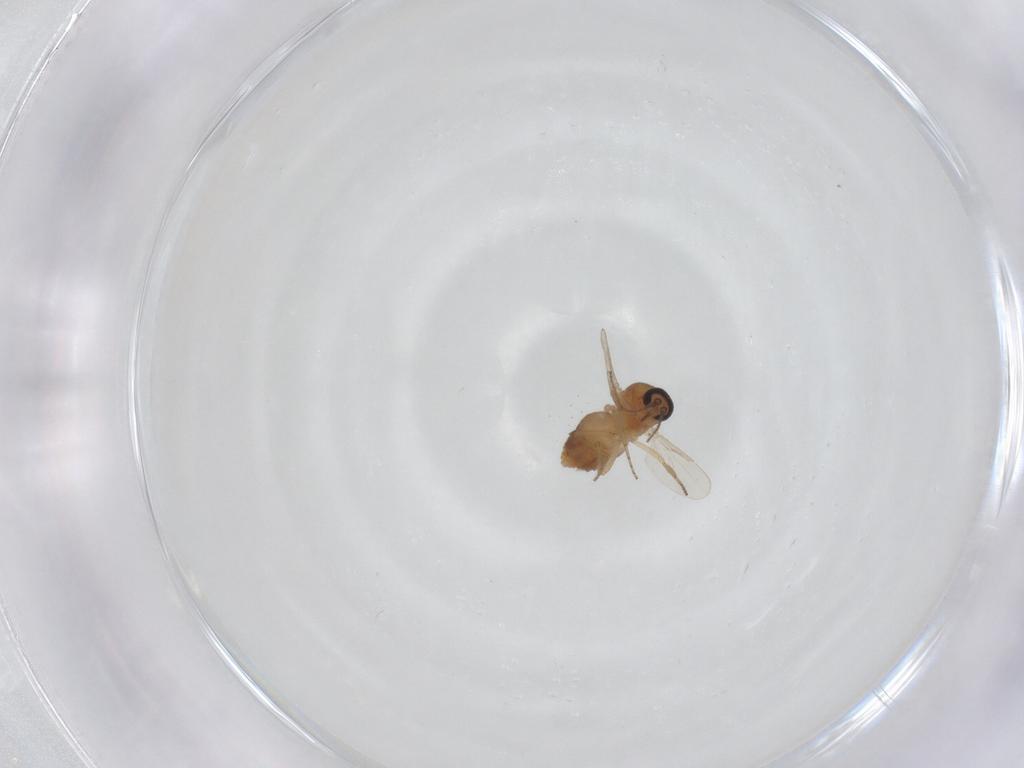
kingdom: Animalia
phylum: Arthropoda
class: Insecta
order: Diptera
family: Ceratopogonidae
